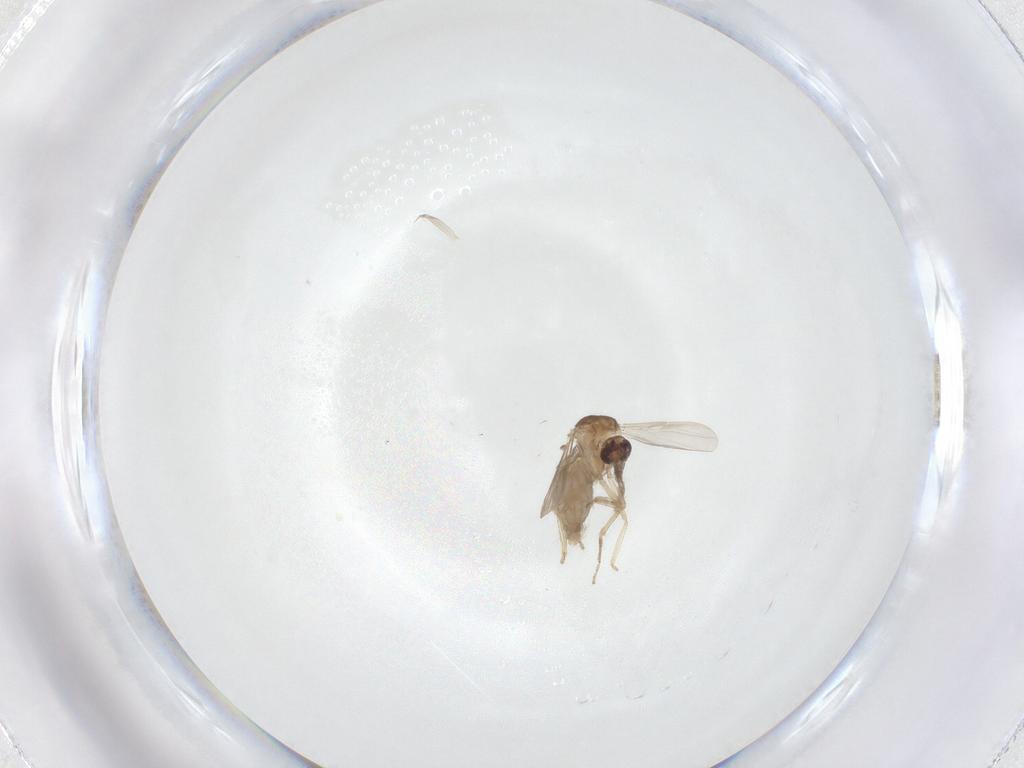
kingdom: Animalia
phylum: Arthropoda
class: Insecta
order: Diptera
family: Ceratopogonidae
